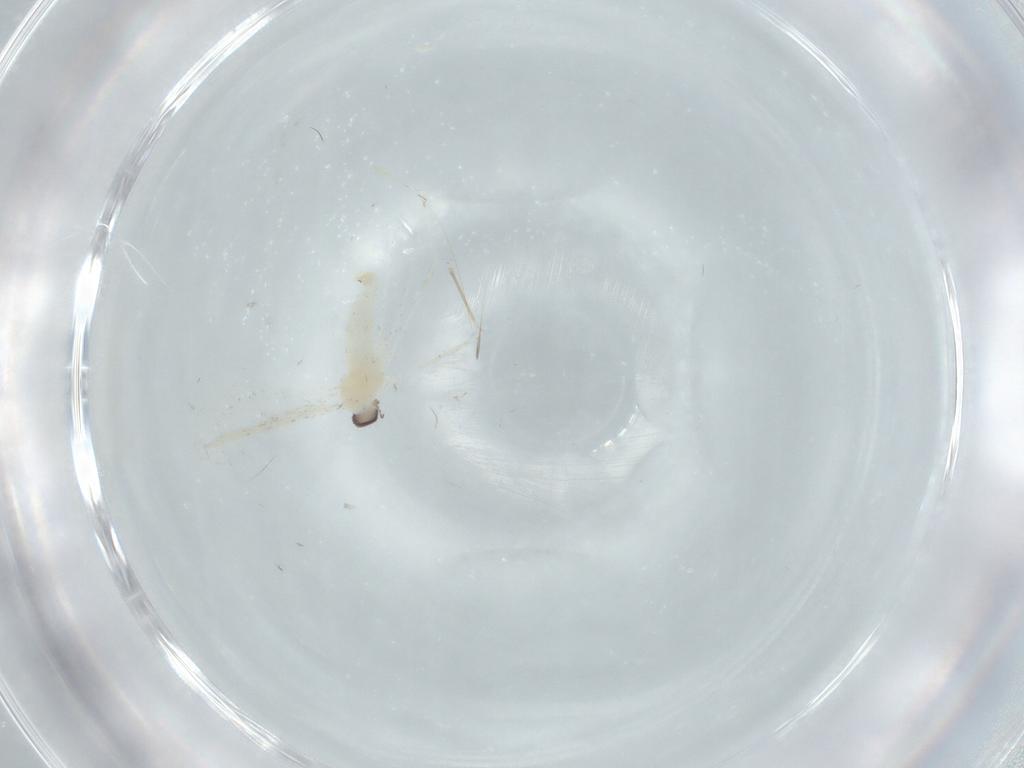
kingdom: Animalia
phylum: Arthropoda
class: Insecta
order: Diptera
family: Cecidomyiidae
